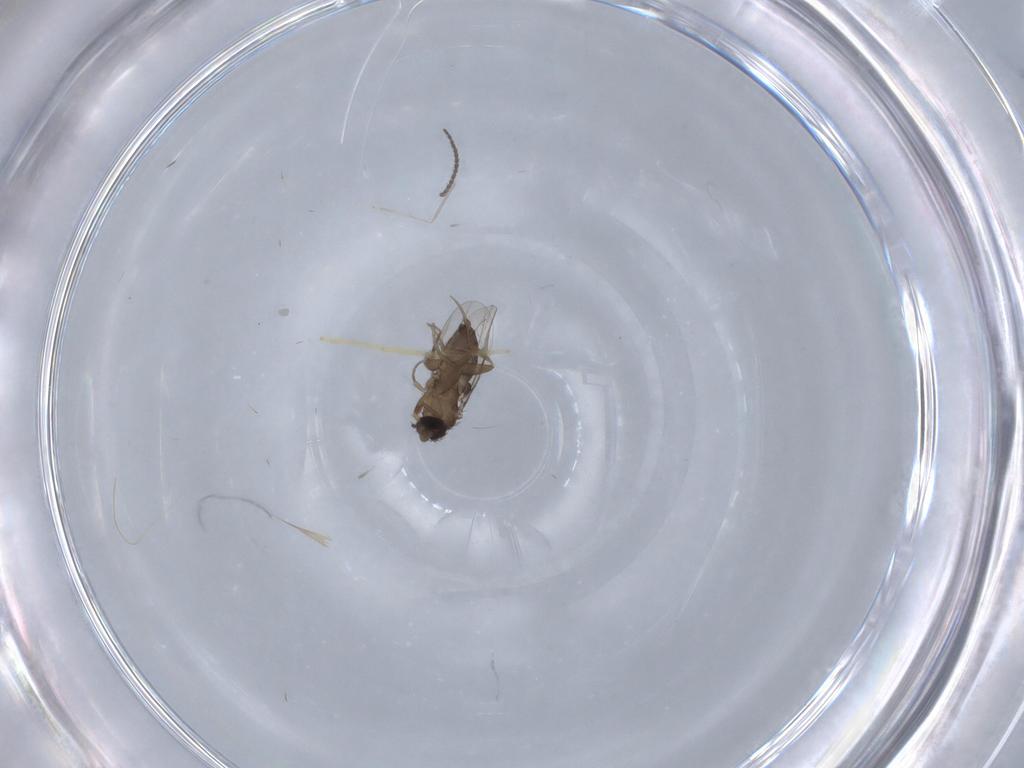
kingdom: Animalia
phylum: Arthropoda
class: Insecta
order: Diptera
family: Phoridae
